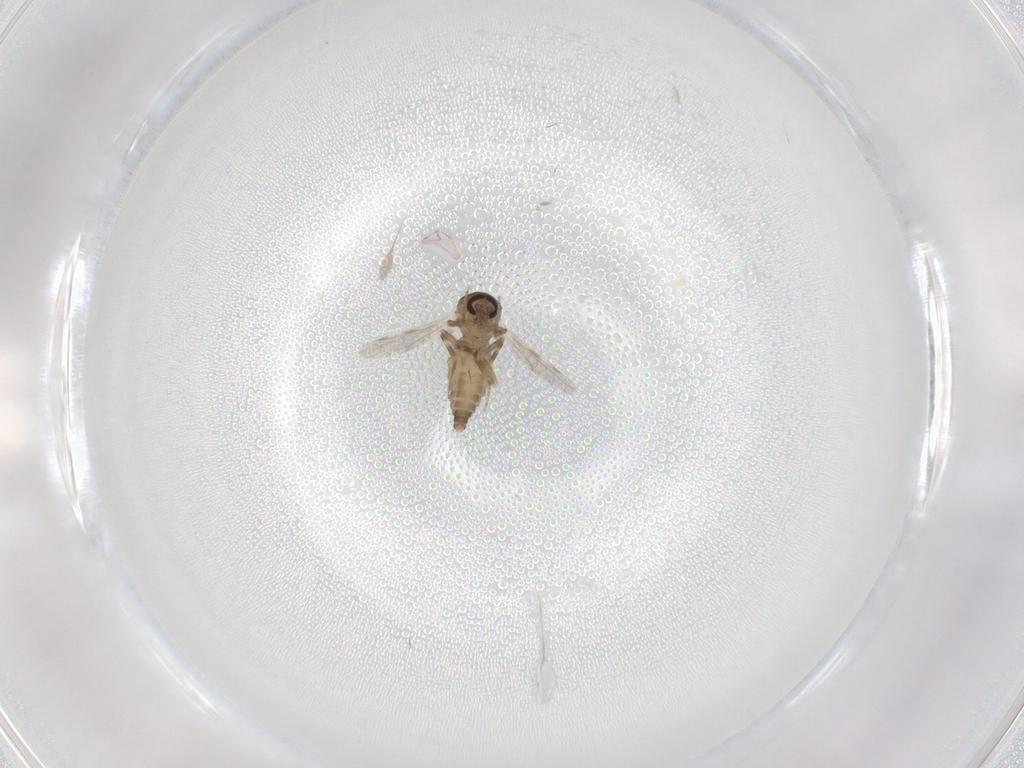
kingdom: Animalia
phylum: Arthropoda
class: Insecta
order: Diptera
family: Ceratopogonidae
